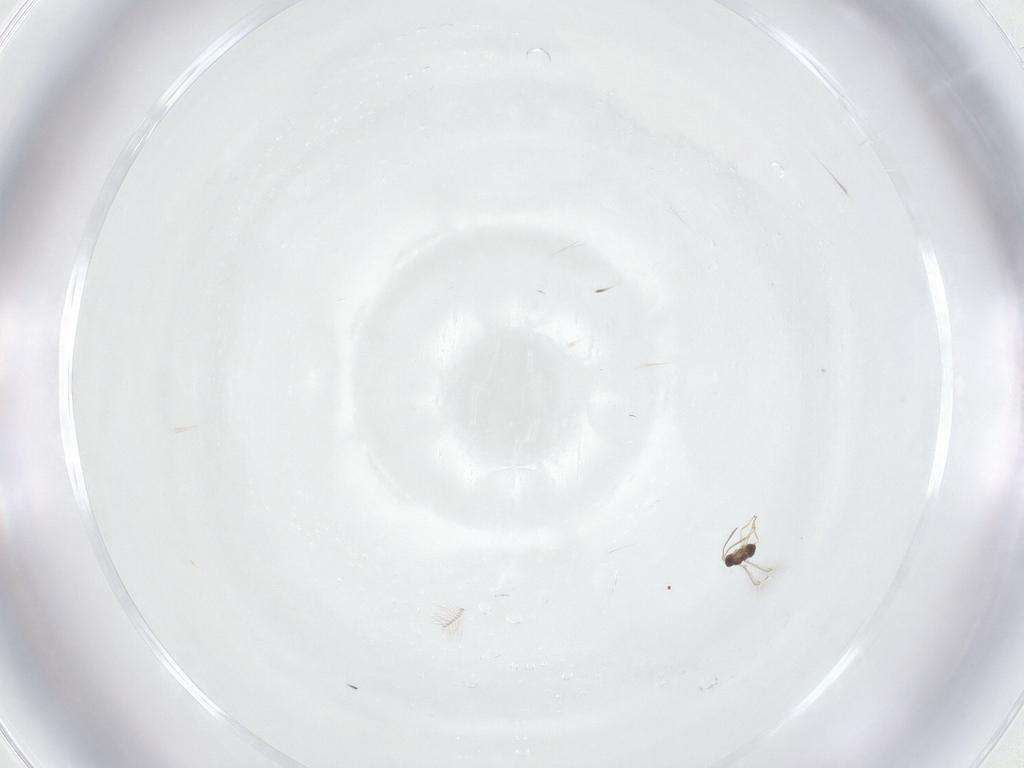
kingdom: Animalia
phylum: Arthropoda
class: Insecta
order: Hymenoptera
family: Mymaridae
